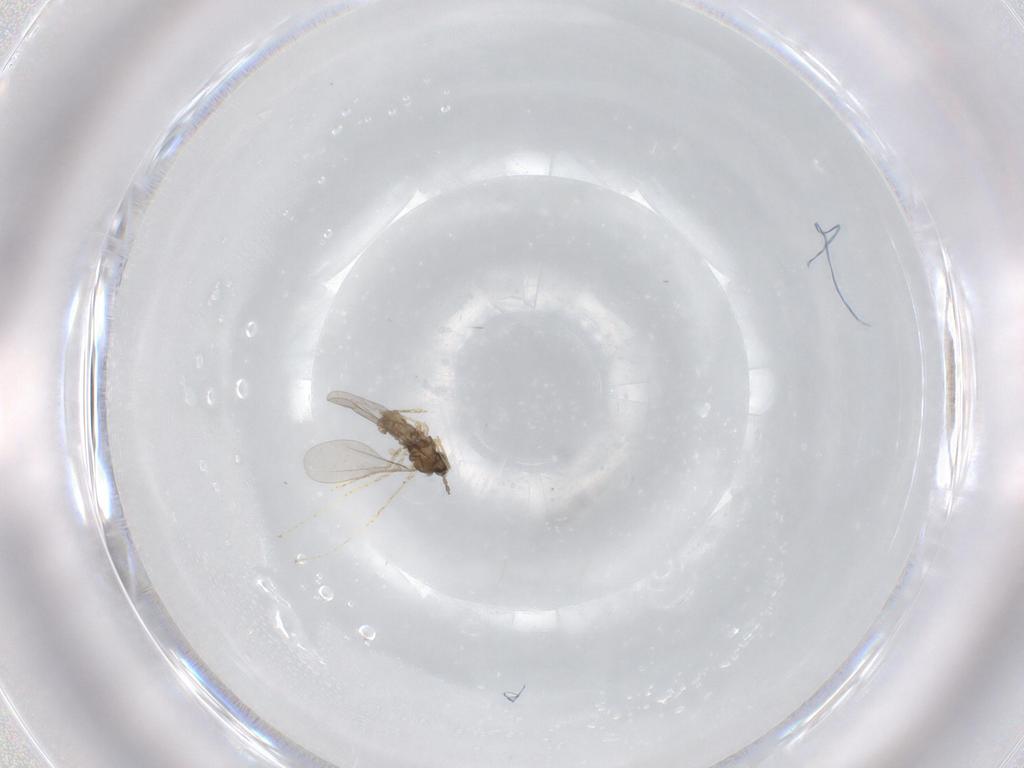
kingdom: Animalia
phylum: Arthropoda
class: Insecta
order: Diptera
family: Cecidomyiidae
